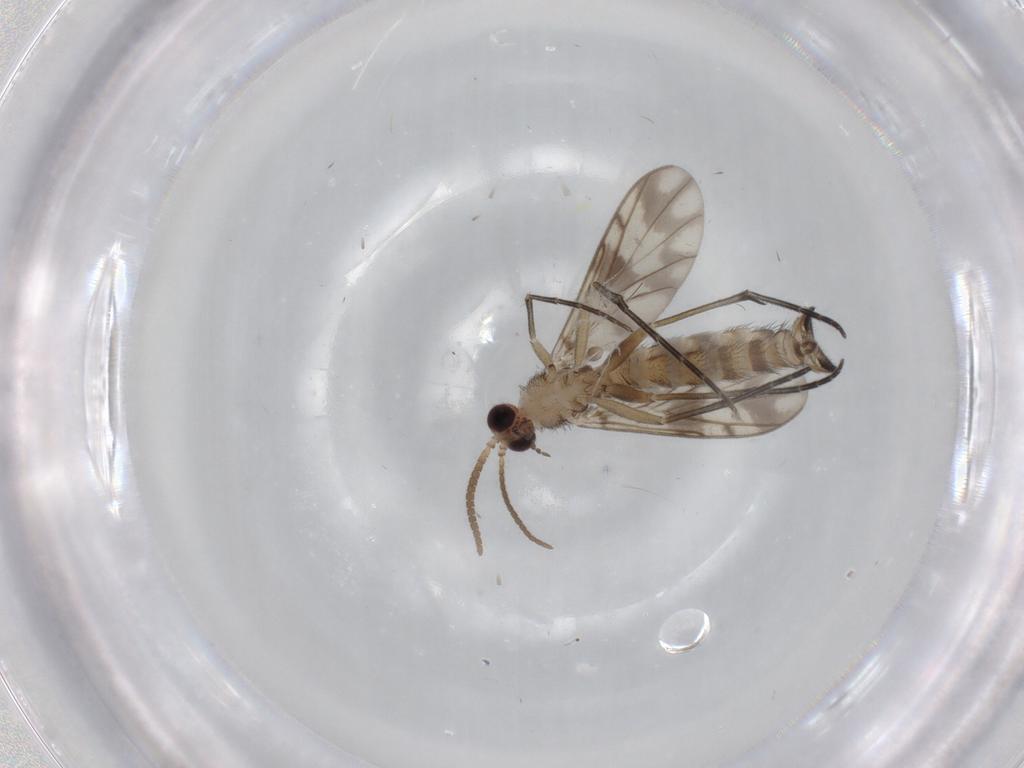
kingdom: Animalia
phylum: Arthropoda
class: Insecta
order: Diptera
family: Keroplatidae
